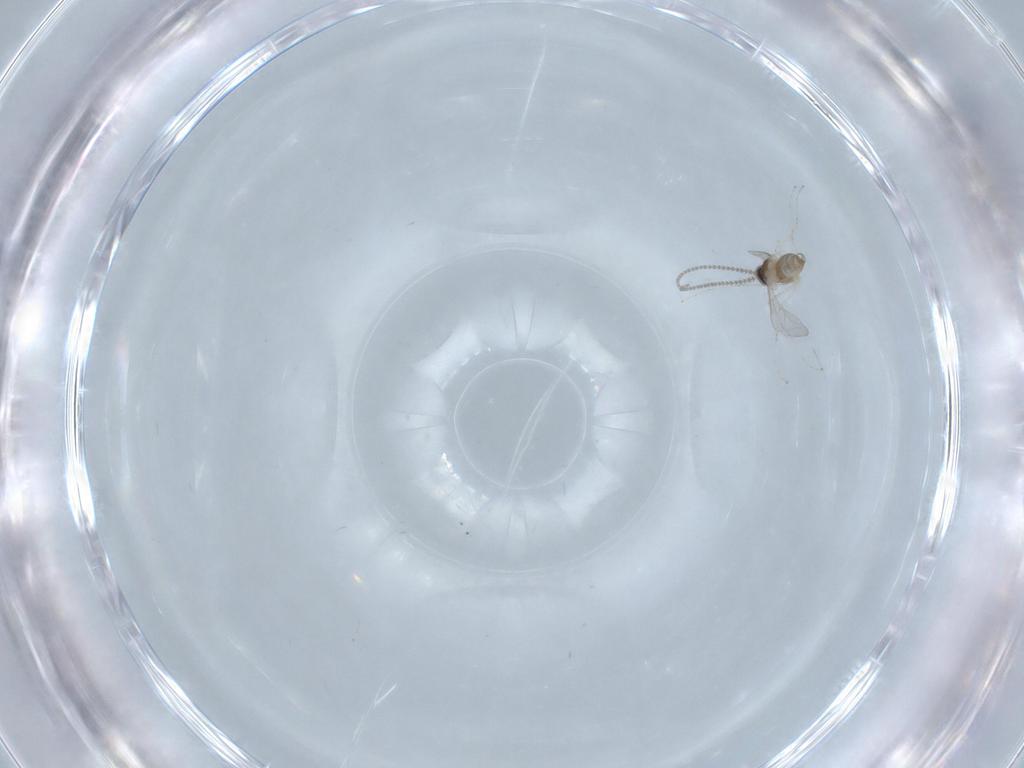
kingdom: Animalia
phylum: Arthropoda
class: Insecta
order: Diptera
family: Cecidomyiidae
